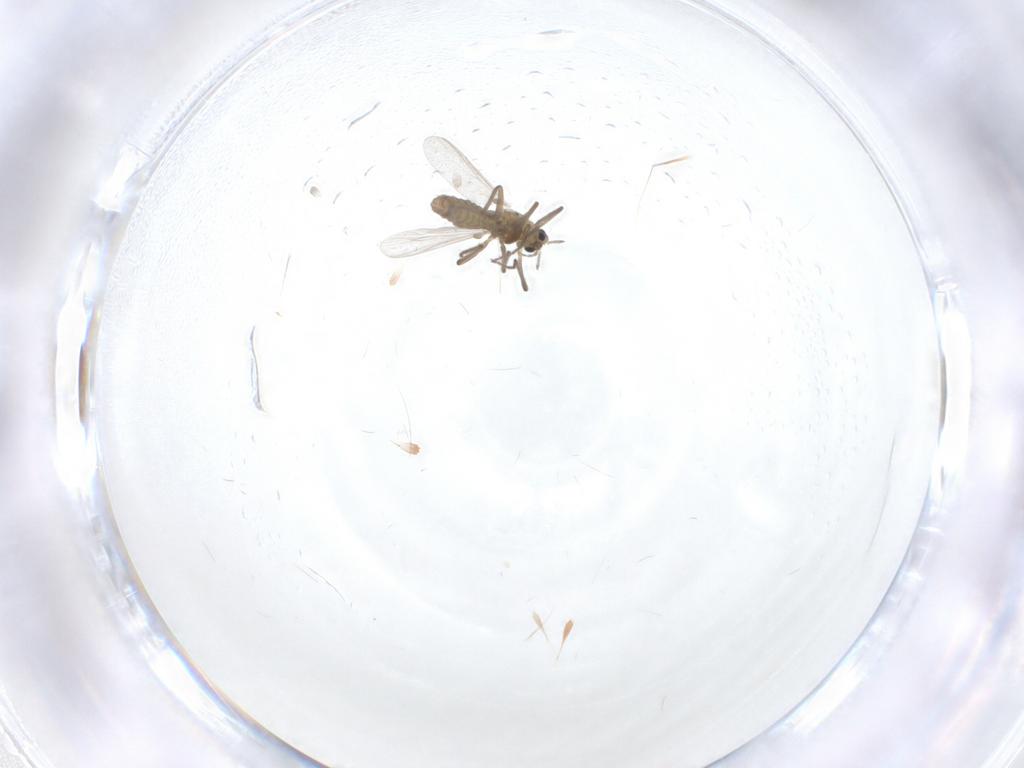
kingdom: Animalia
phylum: Arthropoda
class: Insecta
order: Diptera
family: Chironomidae
